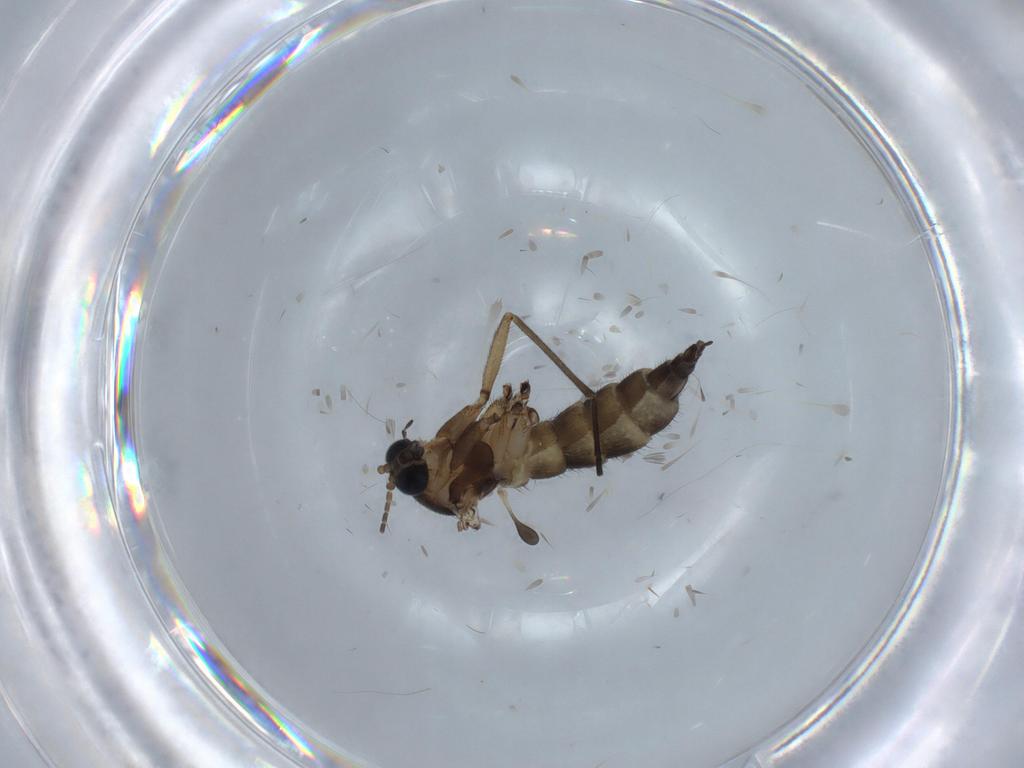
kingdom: Animalia
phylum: Arthropoda
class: Insecta
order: Diptera
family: Sciaridae
